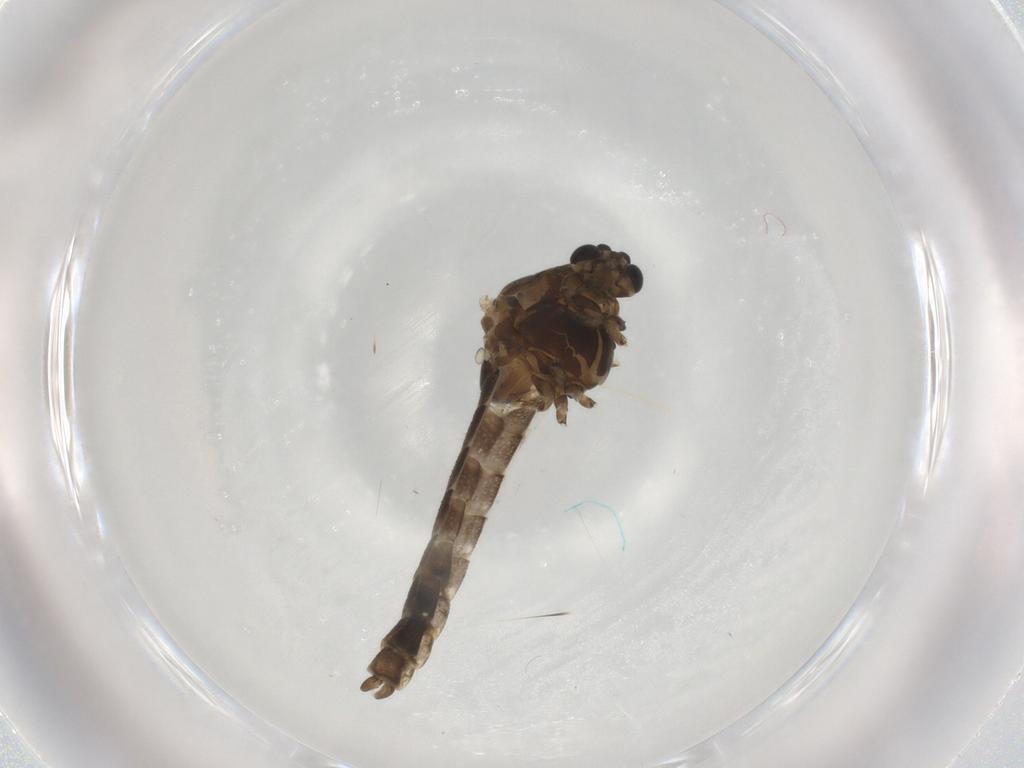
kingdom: Animalia
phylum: Arthropoda
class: Insecta
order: Diptera
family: Chironomidae
